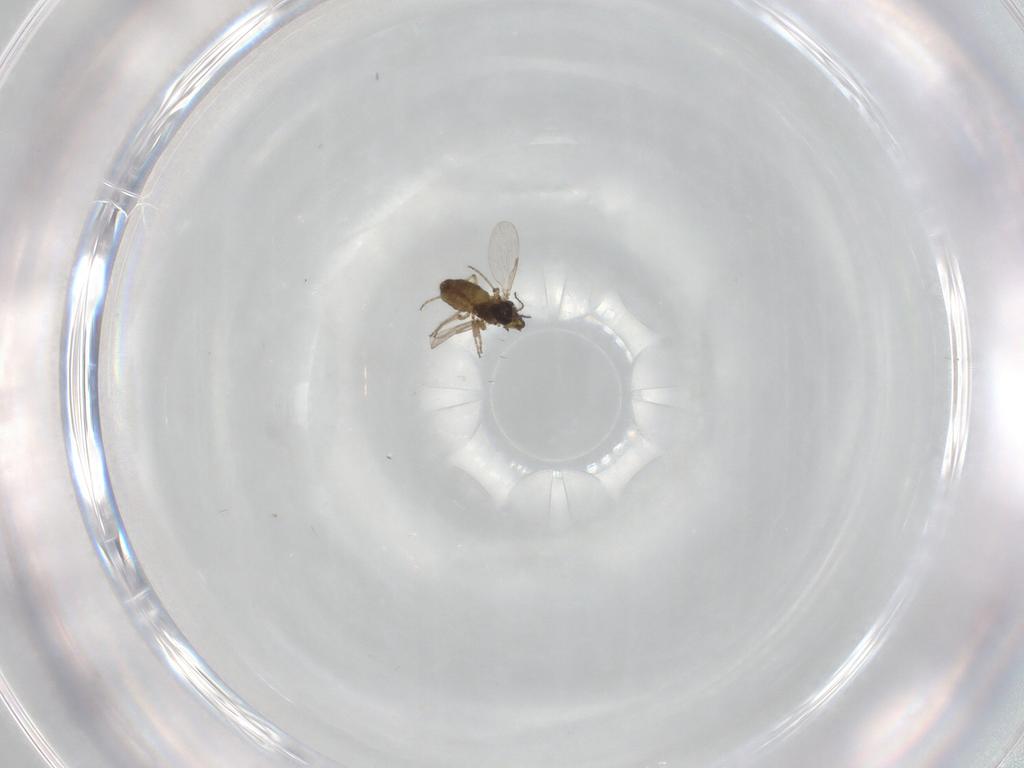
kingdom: Animalia
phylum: Arthropoda
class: Insecta
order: Diptera
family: Ceratopogonidae
